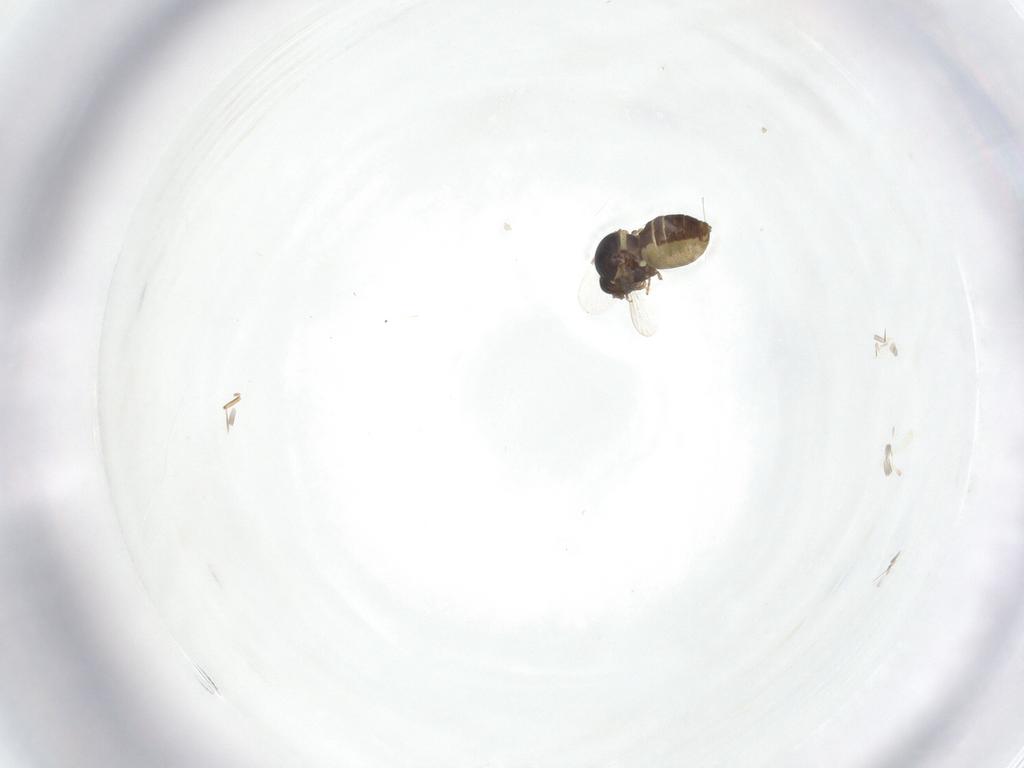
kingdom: Animalia
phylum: Arthropoda
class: Insecta
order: Diptera
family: Ceratopogonidae
